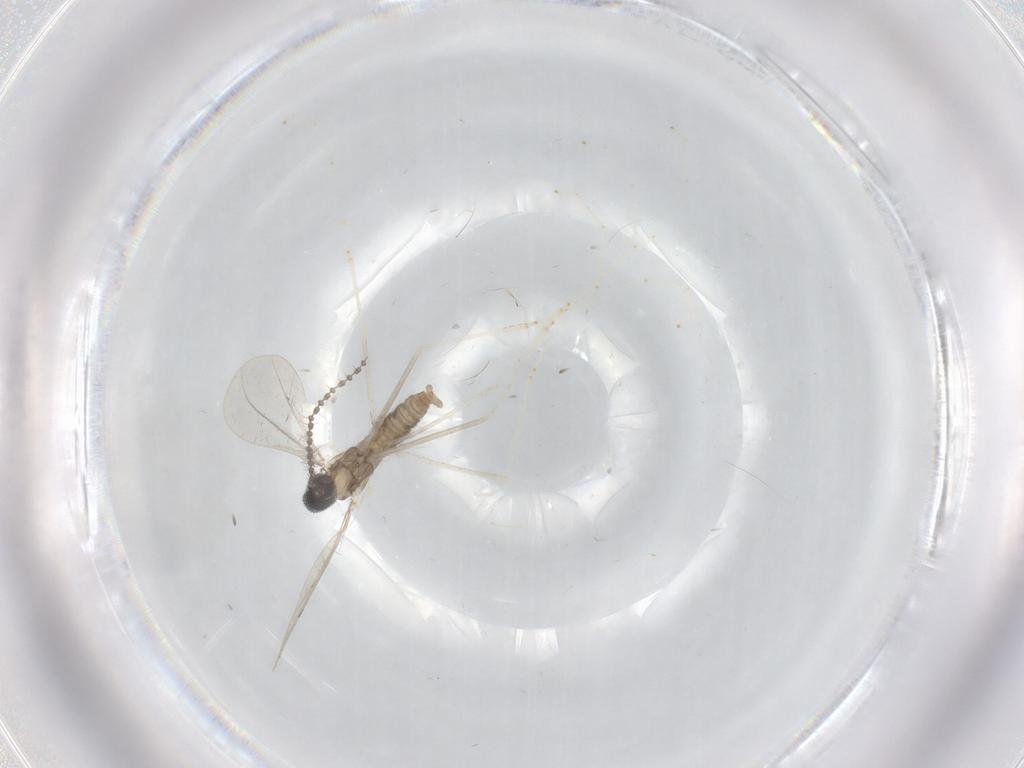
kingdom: Animalia
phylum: Arthropoda
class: Insecta
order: Diptera
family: Cecidomyiidae
